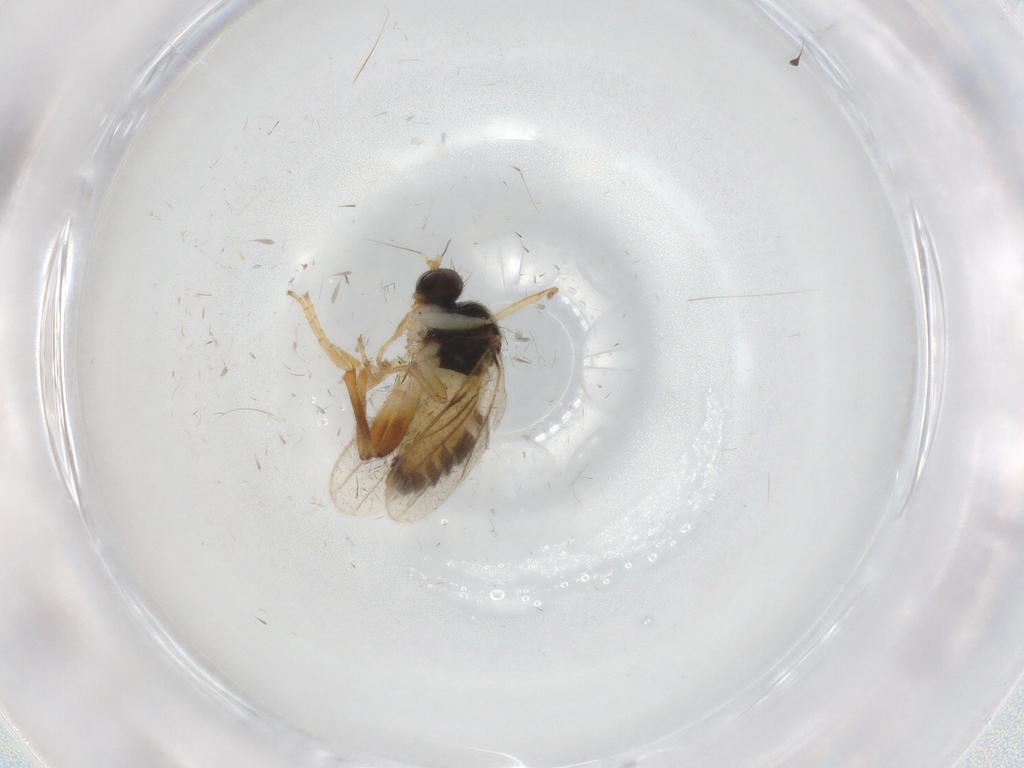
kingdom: Animalia
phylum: Arthropoda
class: Insecta
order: Diptera
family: Hybotidae
